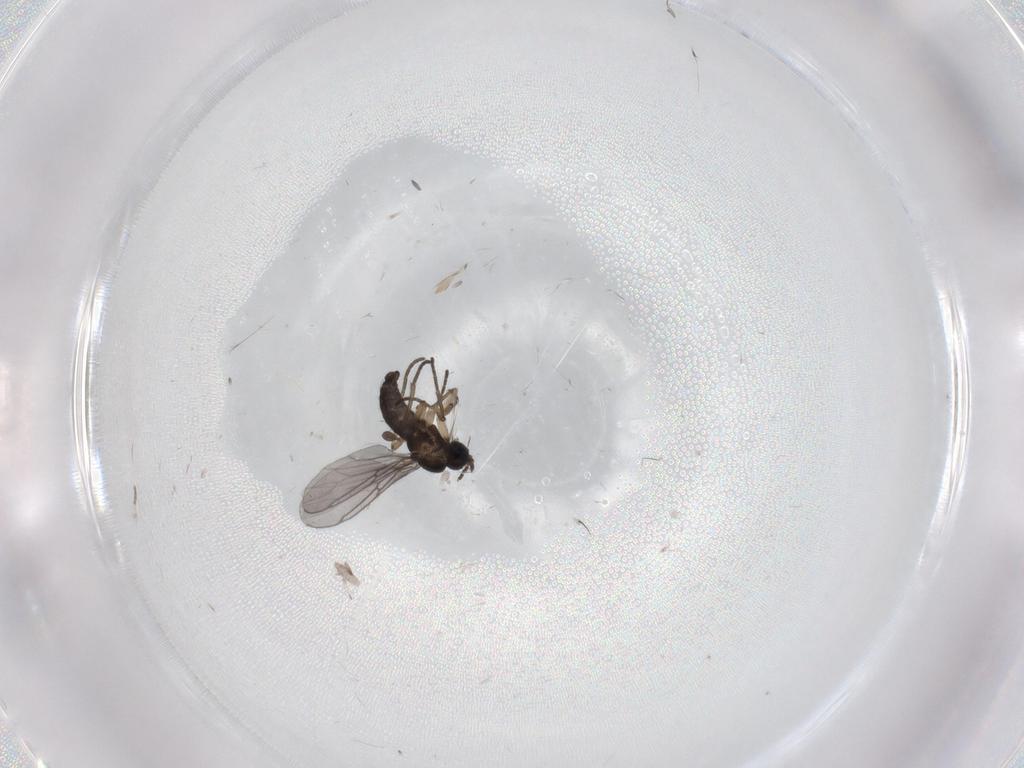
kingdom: Animalia
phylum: Arthropoda
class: Insecta
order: Diptera
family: Phoridae
